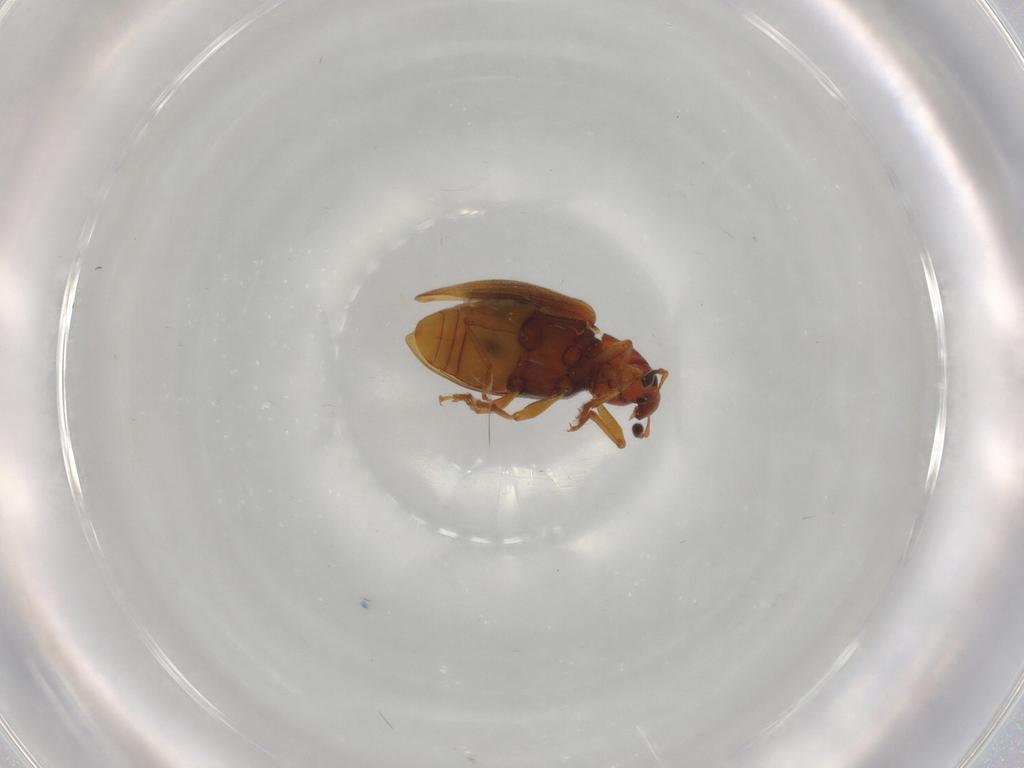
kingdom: Animalia
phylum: Arthropoda
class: Insecta
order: Coleoptera
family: Curculionidae
